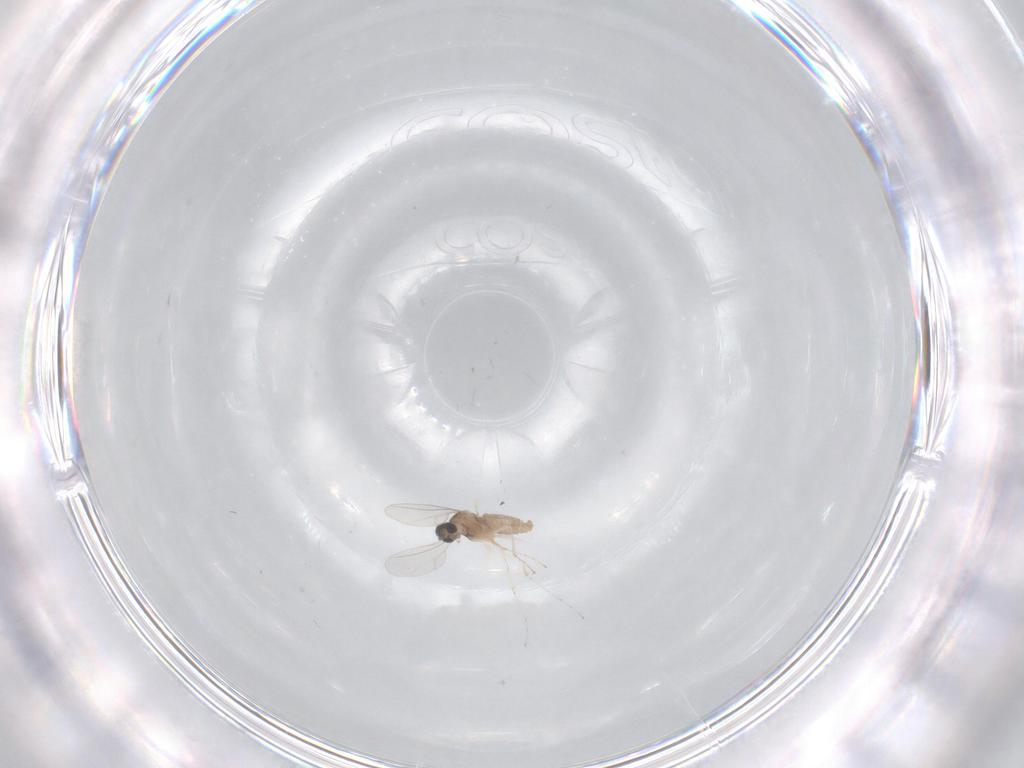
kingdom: Animalia
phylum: Arthropoda
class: Insecta
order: Diptera
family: Cecidomyiidae
